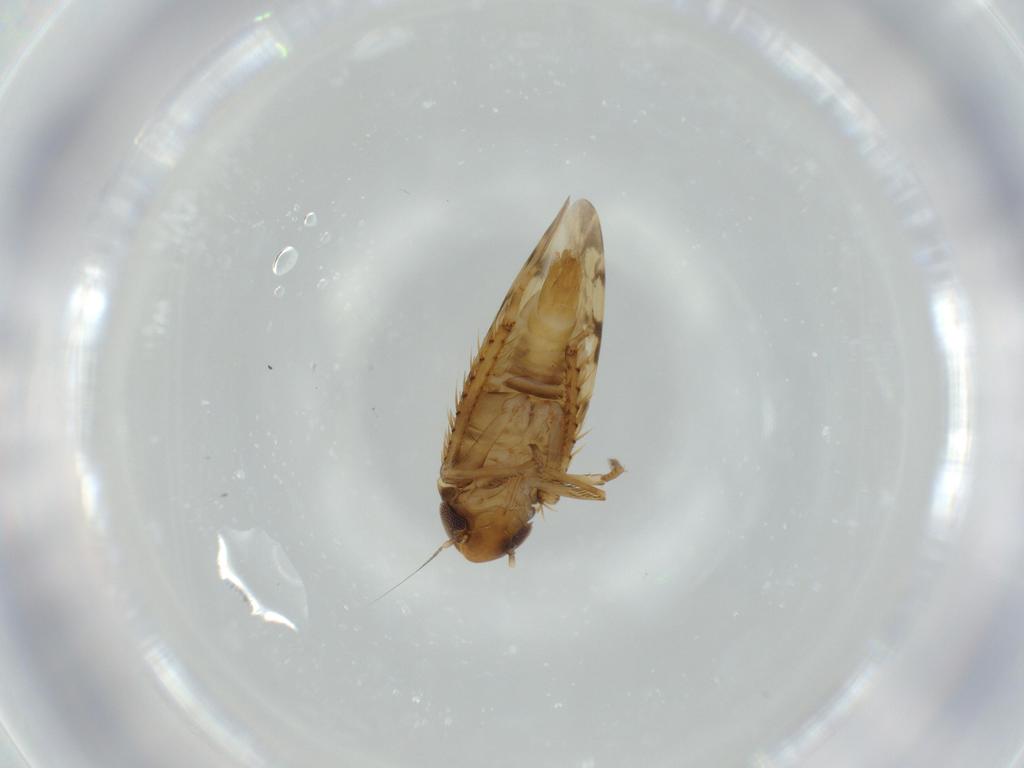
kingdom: Animalia
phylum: Arthropoda
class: Insecta
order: Hemiptera
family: Cicadellidae
